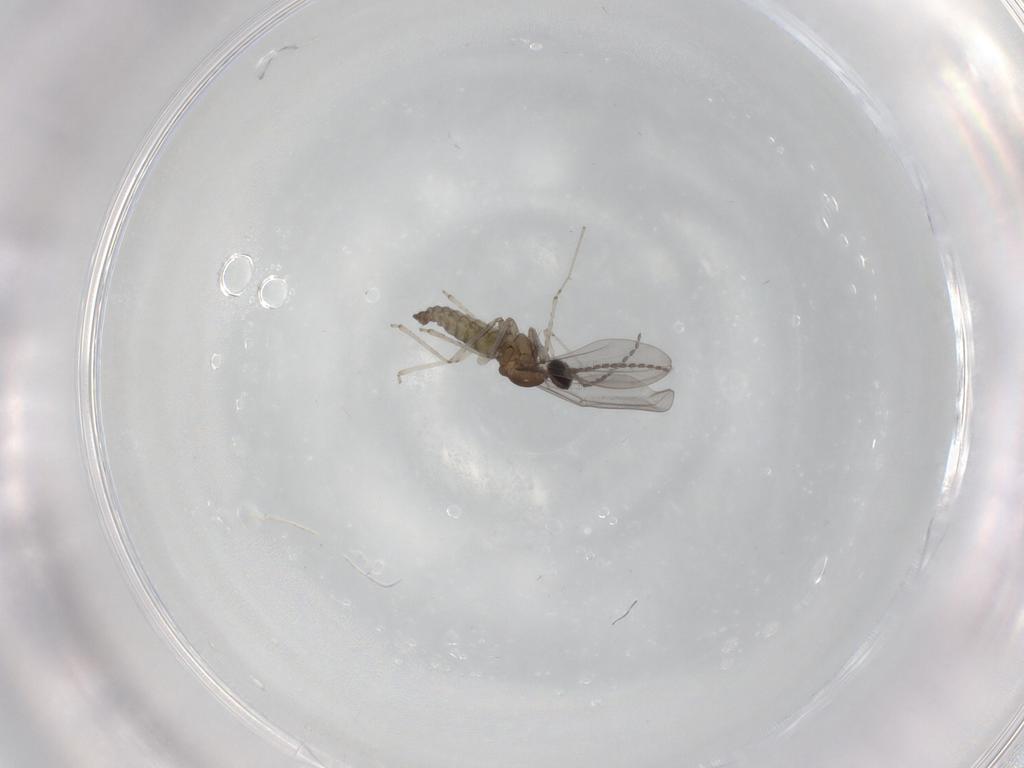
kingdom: Animalia
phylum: Arthropoda
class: Insecta
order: Diptera
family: Cecidomyiidae
